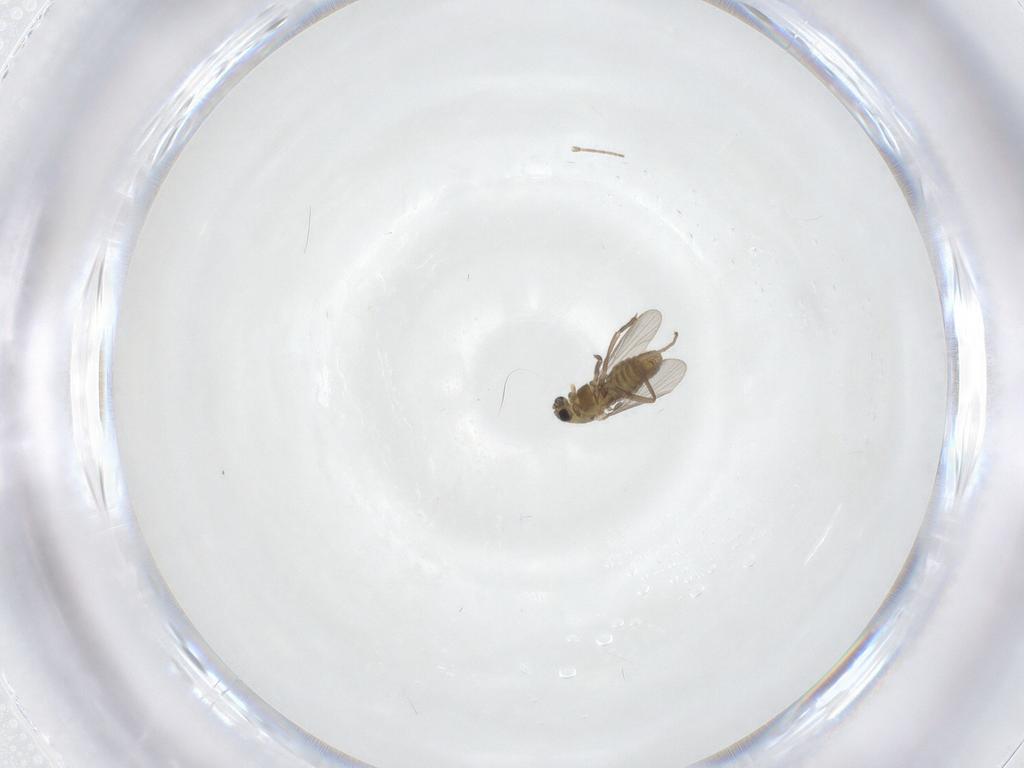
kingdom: Animalia
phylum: Arthropoda
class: Insecta
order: Diptera
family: Chironomidae
